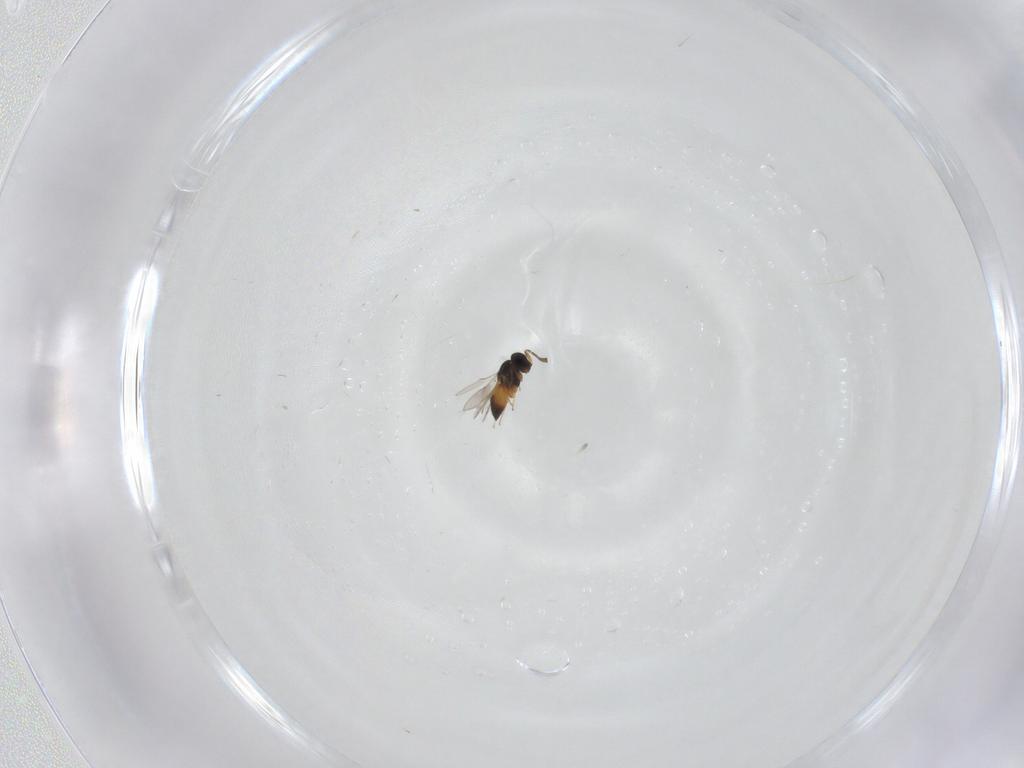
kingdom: Animalia
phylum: Arthropoda
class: Insecta
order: Hymenoptera
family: Scelionidae
